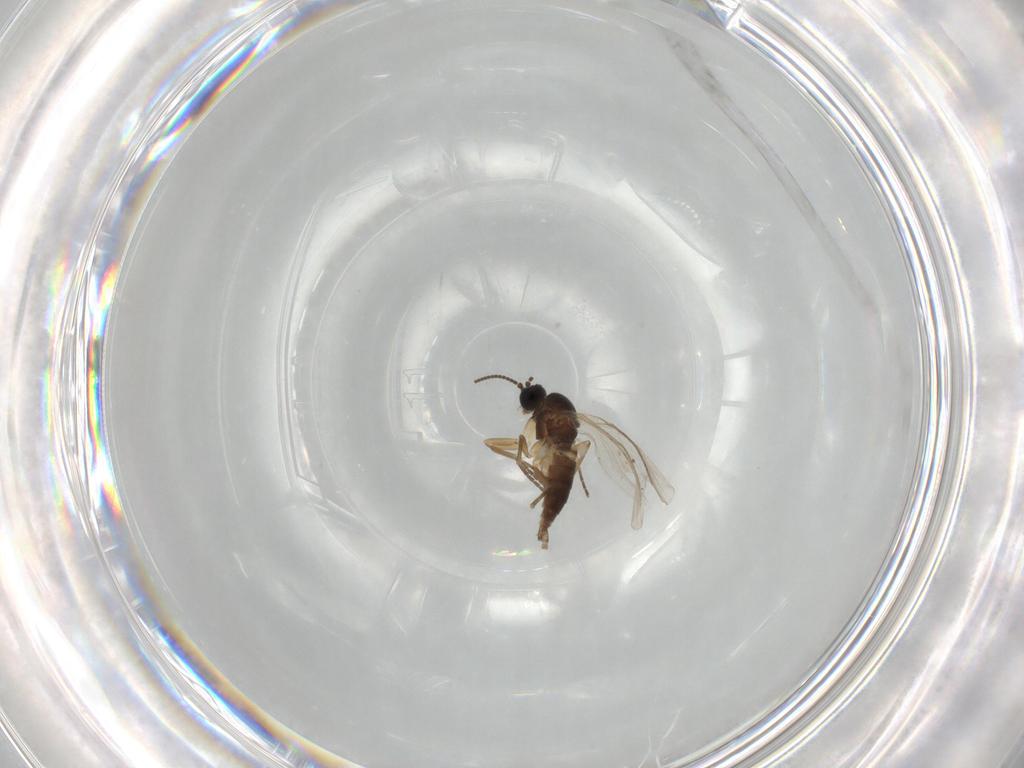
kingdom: Animalia
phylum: Arthropoda
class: Insecta
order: Diptera
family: Sciaridae
